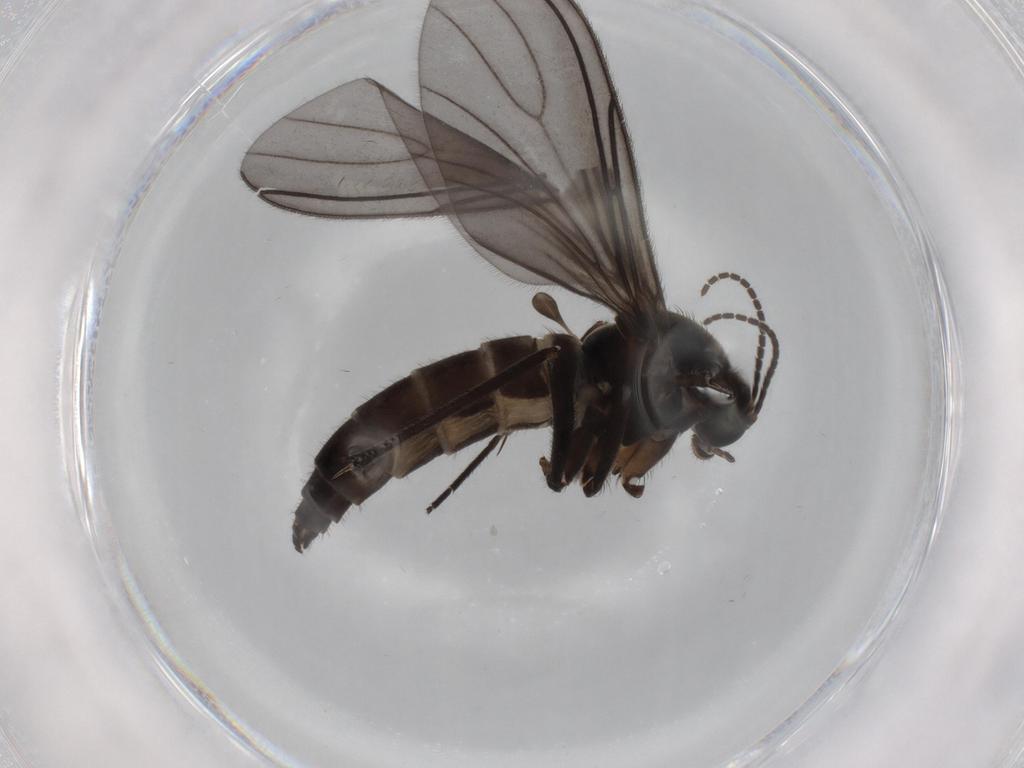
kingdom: Animalia
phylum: Arthropoda
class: Insecta
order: Diptera
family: Sciaridae
